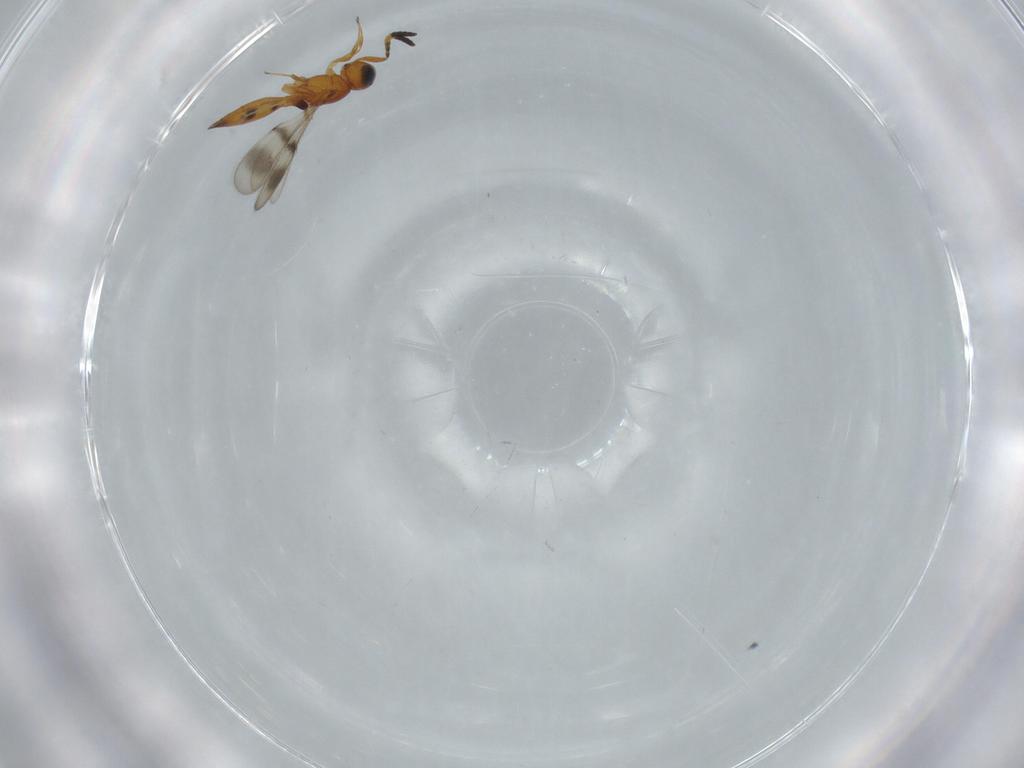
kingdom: Animalia
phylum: Arthropoda
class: Insecta
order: Hymenoptera
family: Scelionidae
